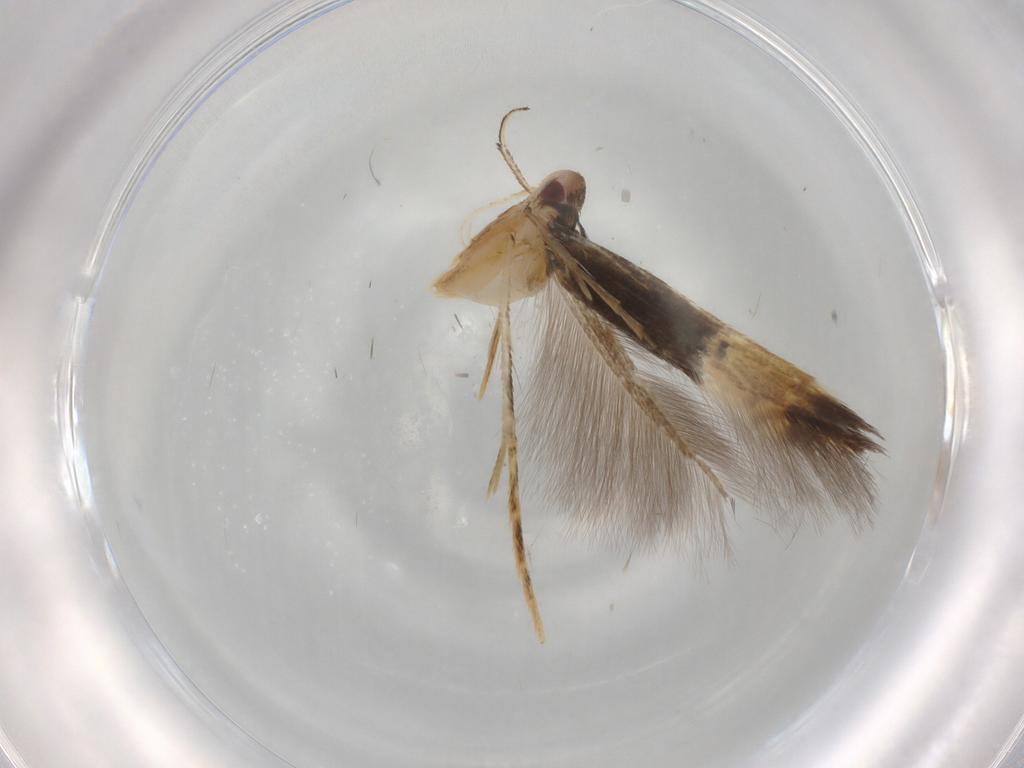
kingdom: Animalia
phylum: Arthropoda
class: Insecta
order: Lepidoptera
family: Cosmopterigidae
